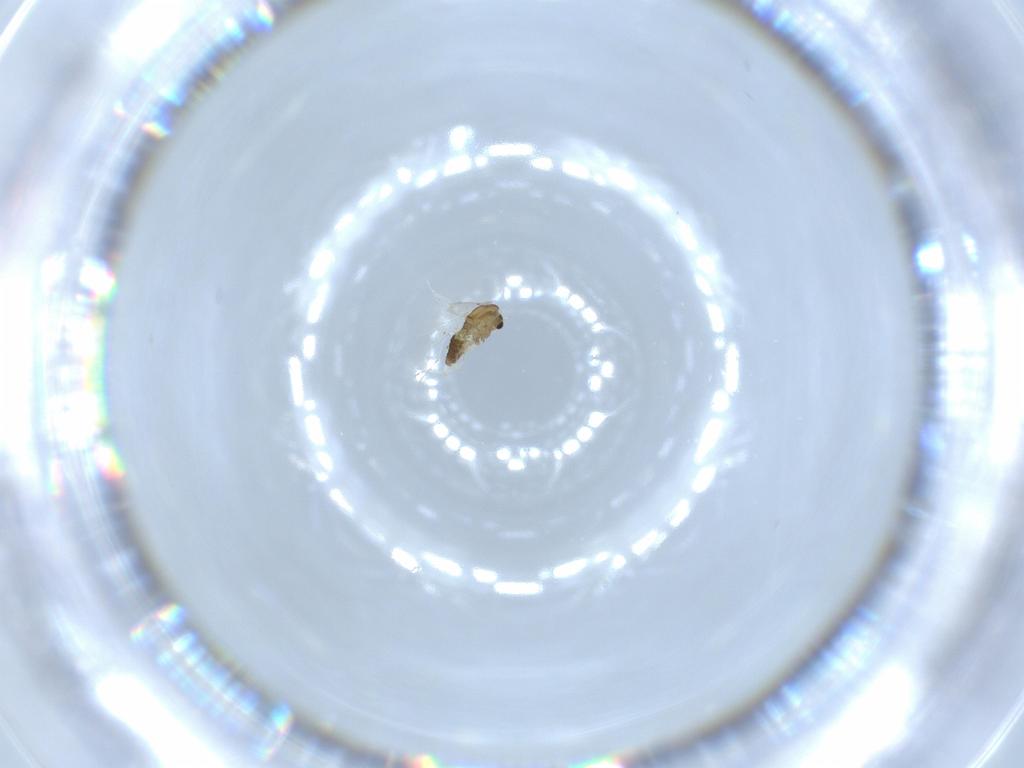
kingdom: Animalia
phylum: Arthropoda
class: Insecta
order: Diptera
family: Chironomidae
